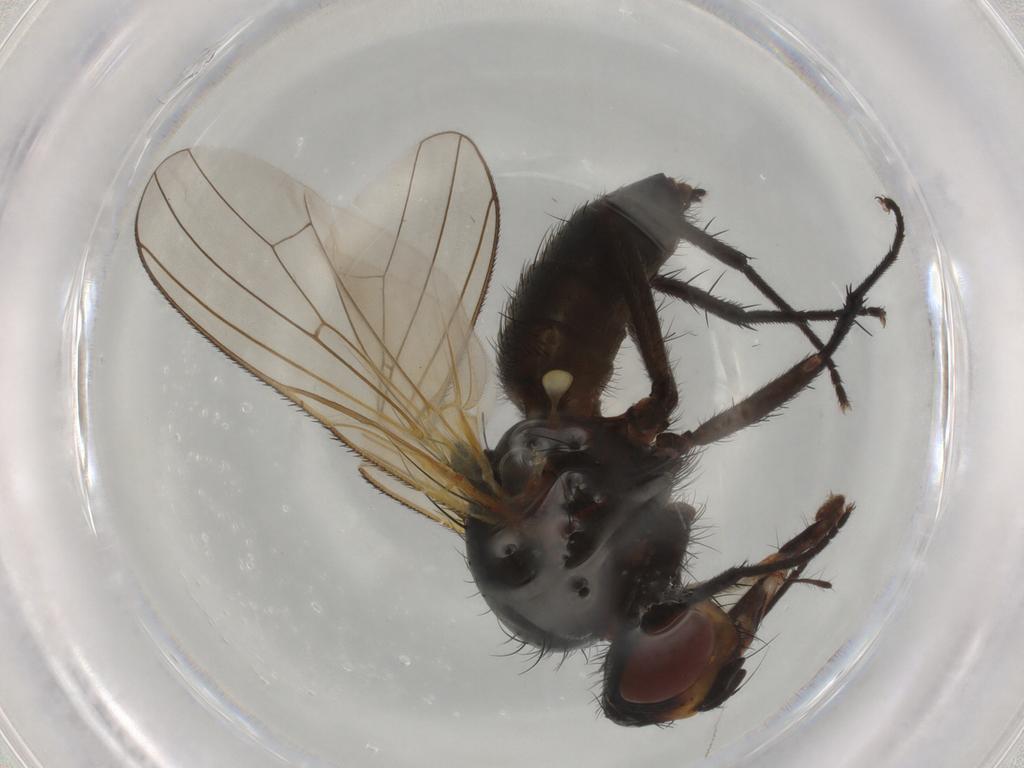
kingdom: Animalia
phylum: Arthropoda
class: Insecta
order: Diptera
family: Anthomyiidae
